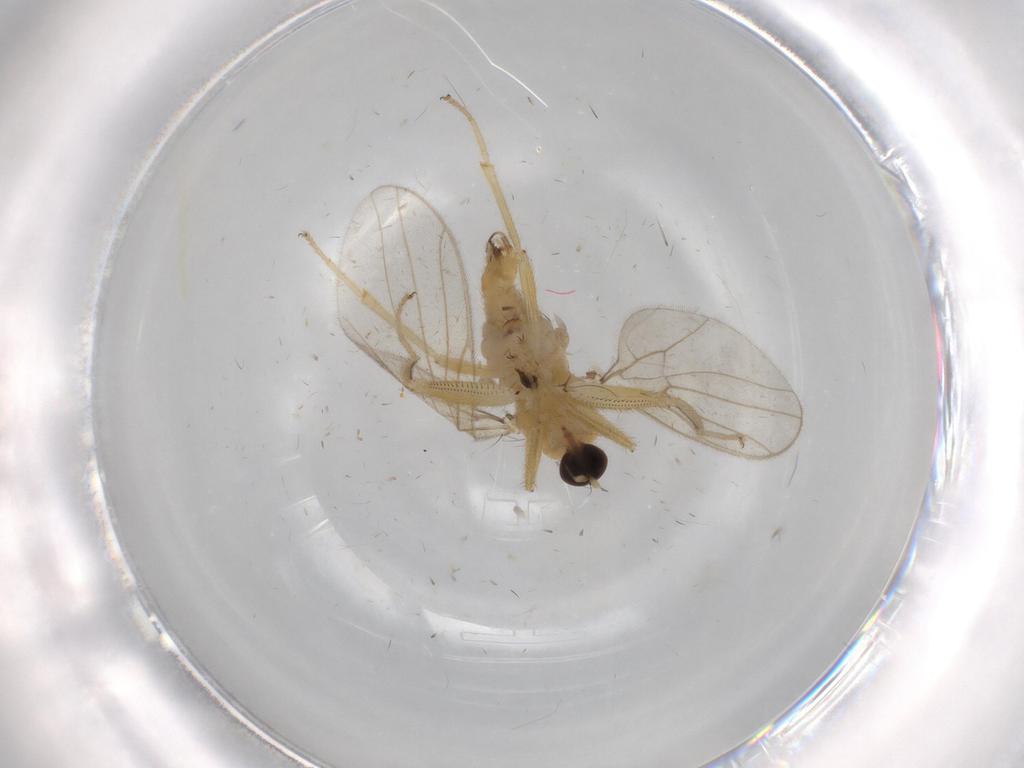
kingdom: Animalia
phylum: Arthropoda
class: Insecta
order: Diptera
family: Hybotidae
